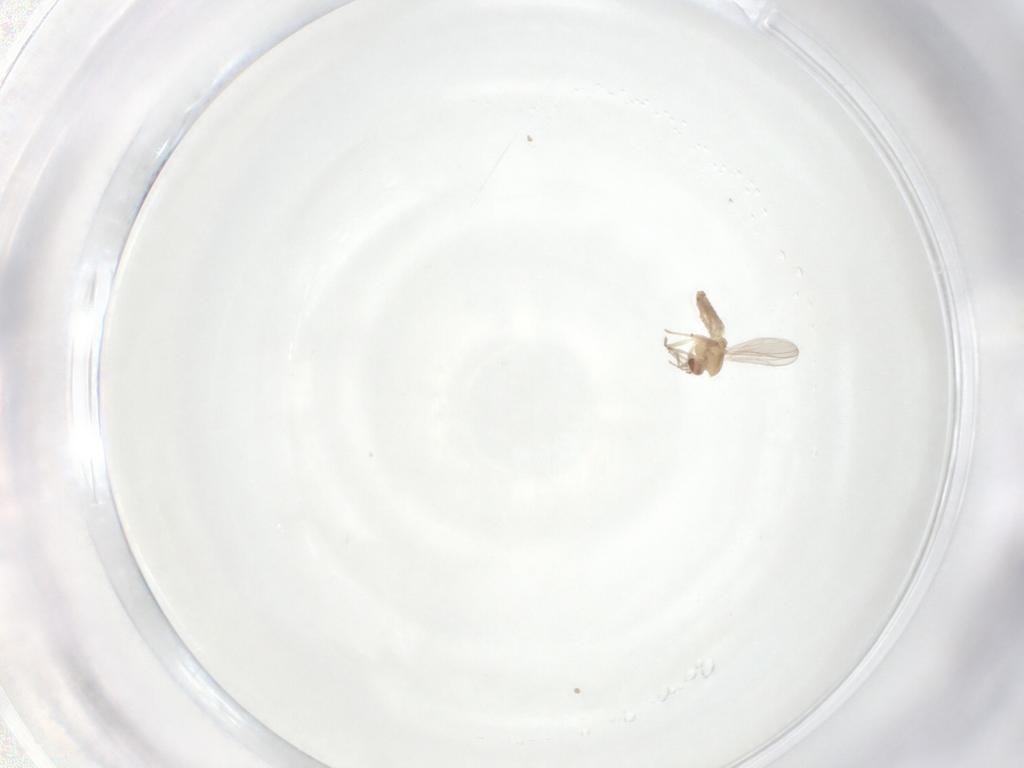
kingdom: Animalia
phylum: Arthropoda
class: Insecta
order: Diptera
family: Chironomidae
